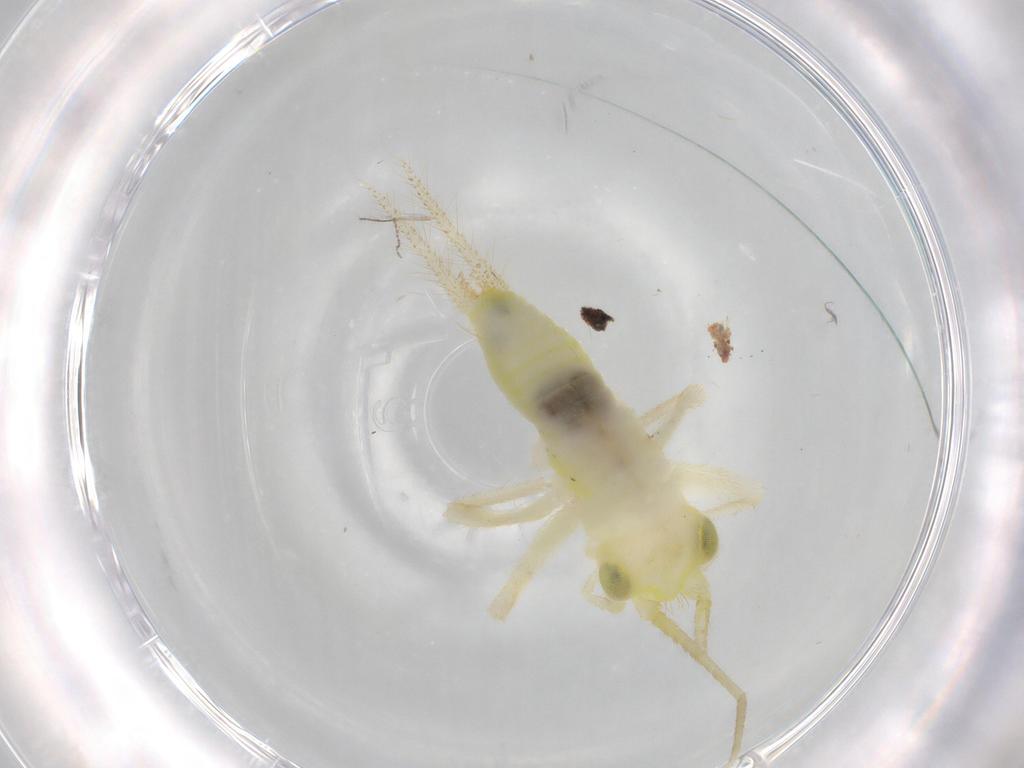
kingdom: Animalia
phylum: Arthropoda
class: Insecta
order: Orthoptera
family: Trigonidiidae
